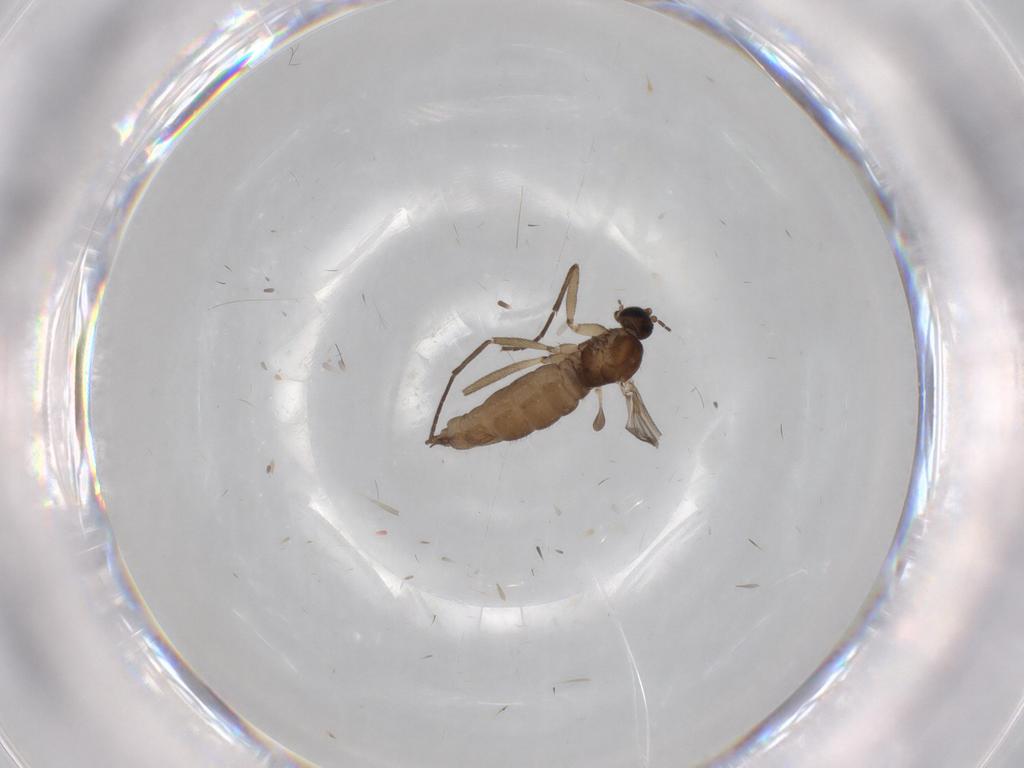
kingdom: Animalia
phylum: Arthropoda
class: Insecta
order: Diptera
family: Sciaridae
